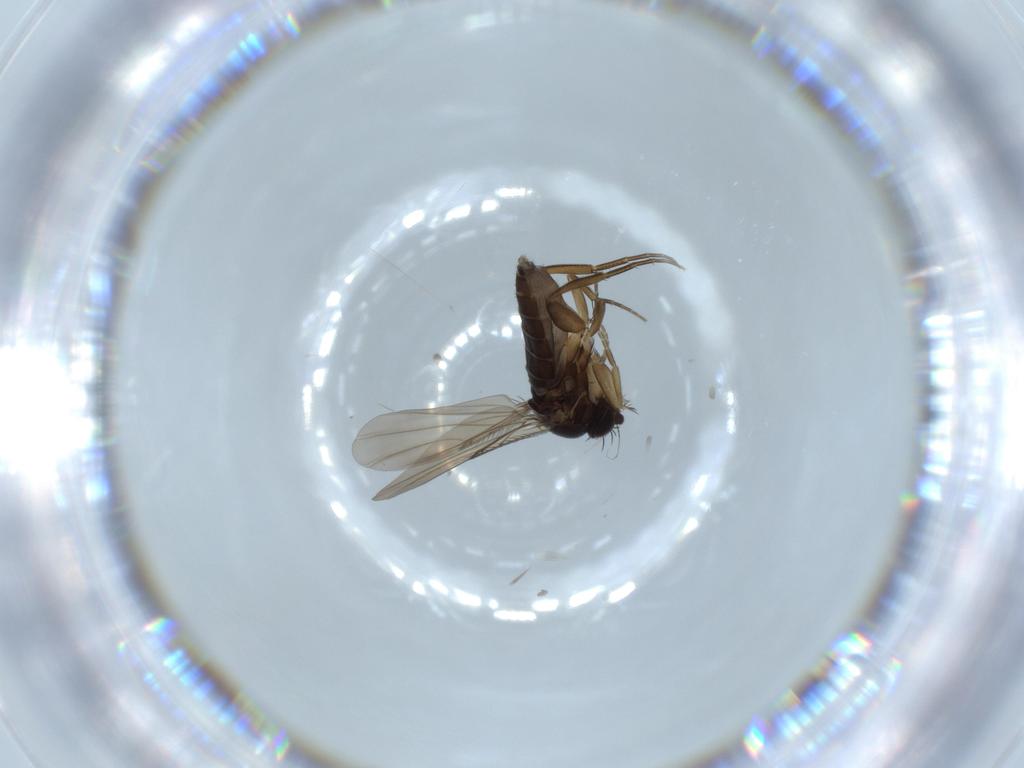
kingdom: Animalia
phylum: Arthropoda
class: Insecta
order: Diptera
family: Phoridae
